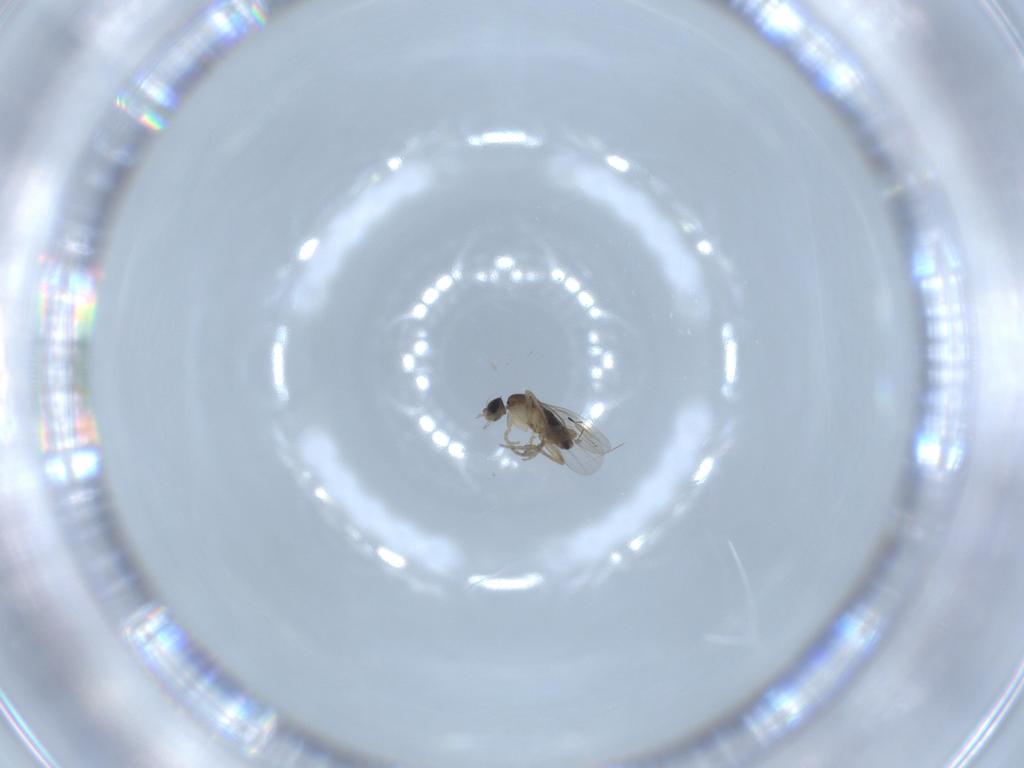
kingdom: Animalia
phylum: Arthropoda
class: Insecta
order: Diptera
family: Phoridae
